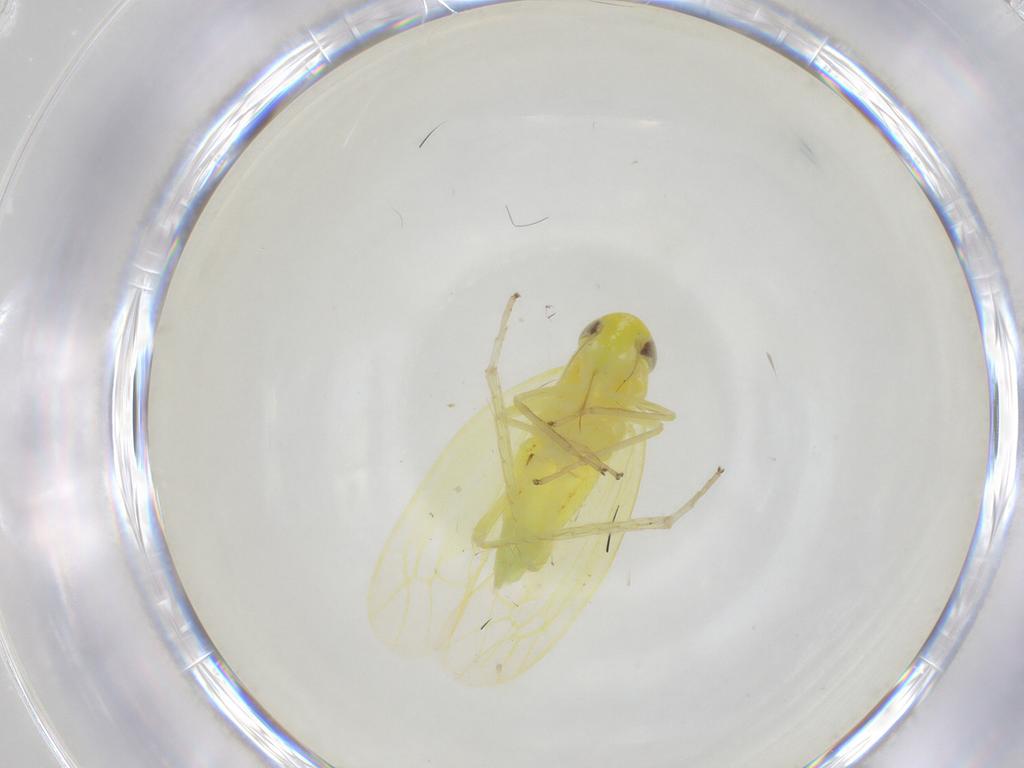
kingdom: Animalia
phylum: Arthropoda
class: Insecta
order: Hemiptera
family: Cicadellidae
